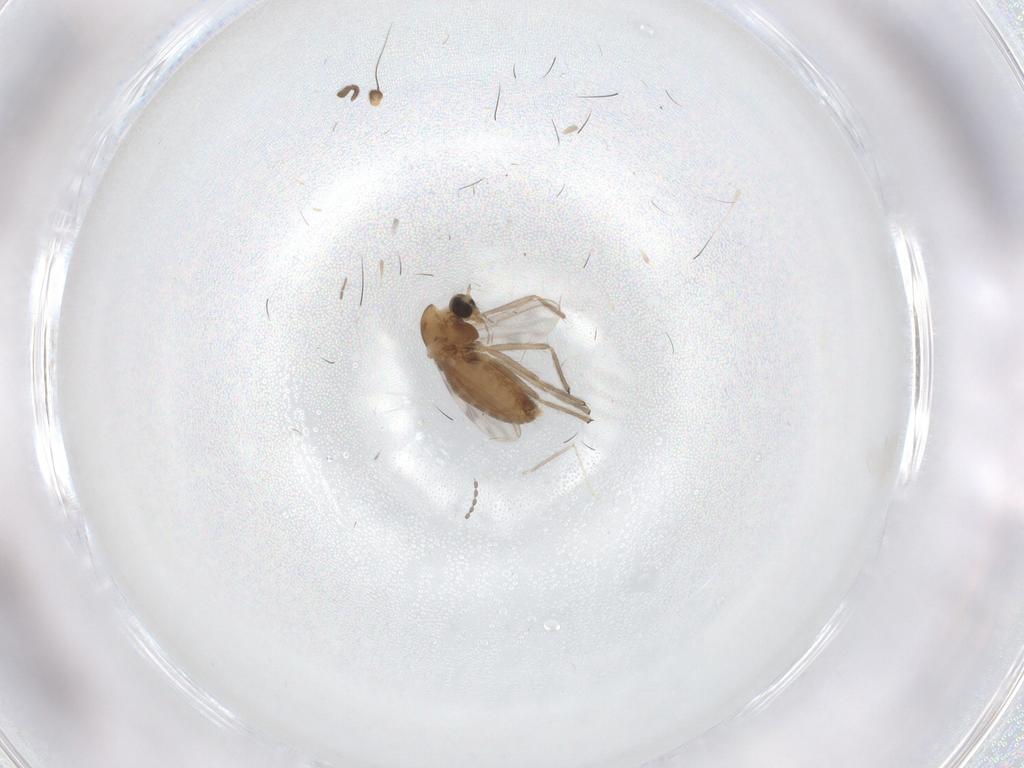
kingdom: Animalia
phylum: Arthropoda
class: Insecta
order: Diptera
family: Chironomidae
